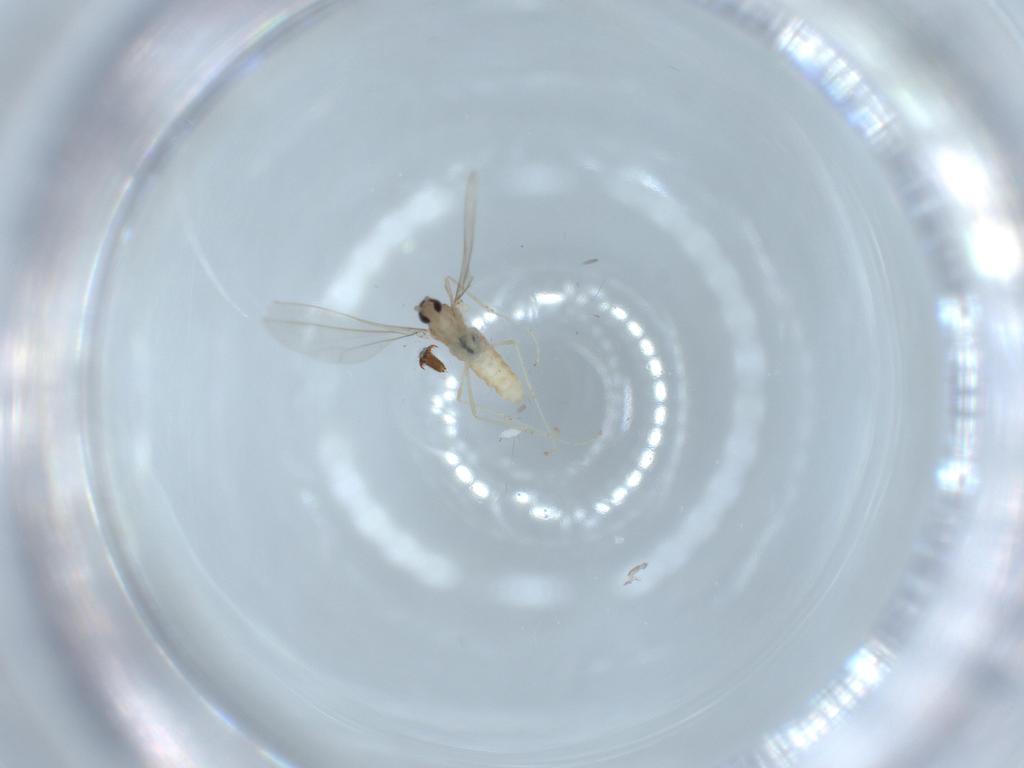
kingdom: Animalia
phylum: Arthropoda
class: Insecta
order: Diptera
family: Cecidomyiidae
